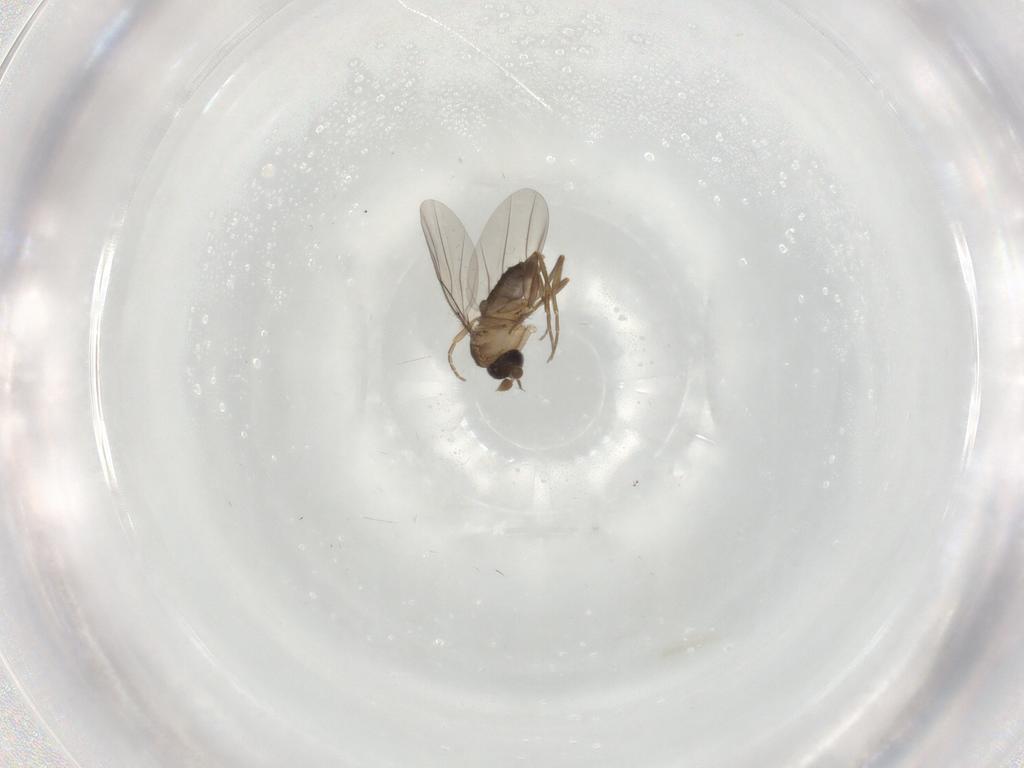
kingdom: Animalia
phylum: Arthropoda
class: Insecta
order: Diptera
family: Phoridae
